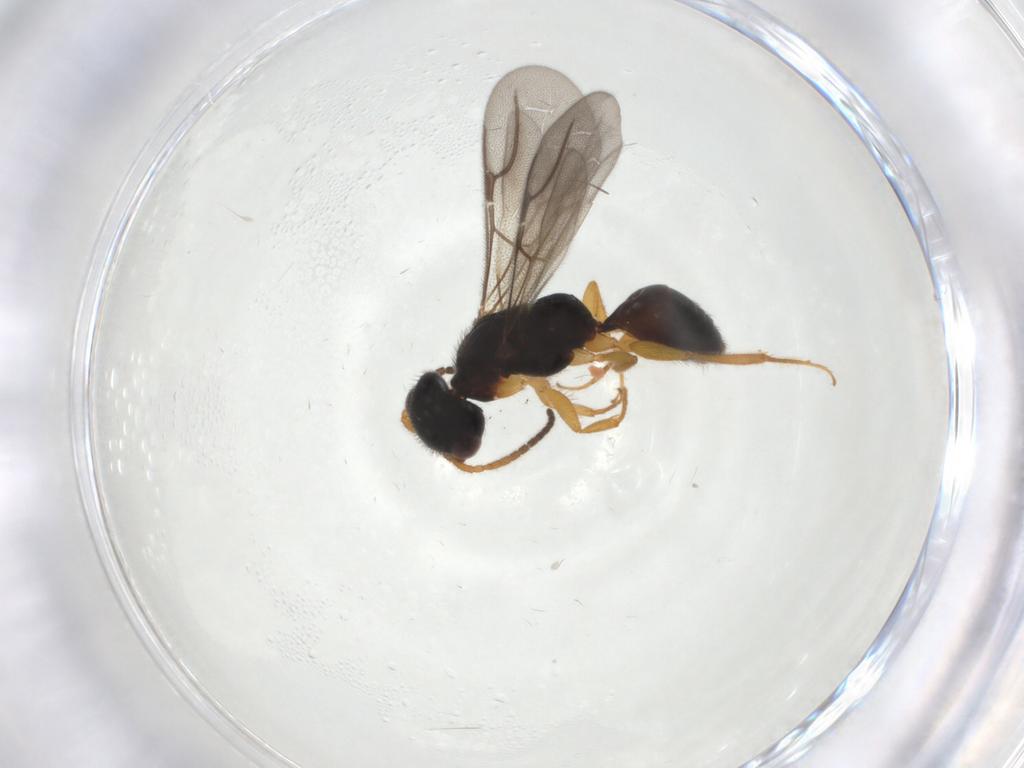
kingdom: Animalia
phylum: Arthropoda
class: Insecta
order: Hymenoptera
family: Bethylidae
